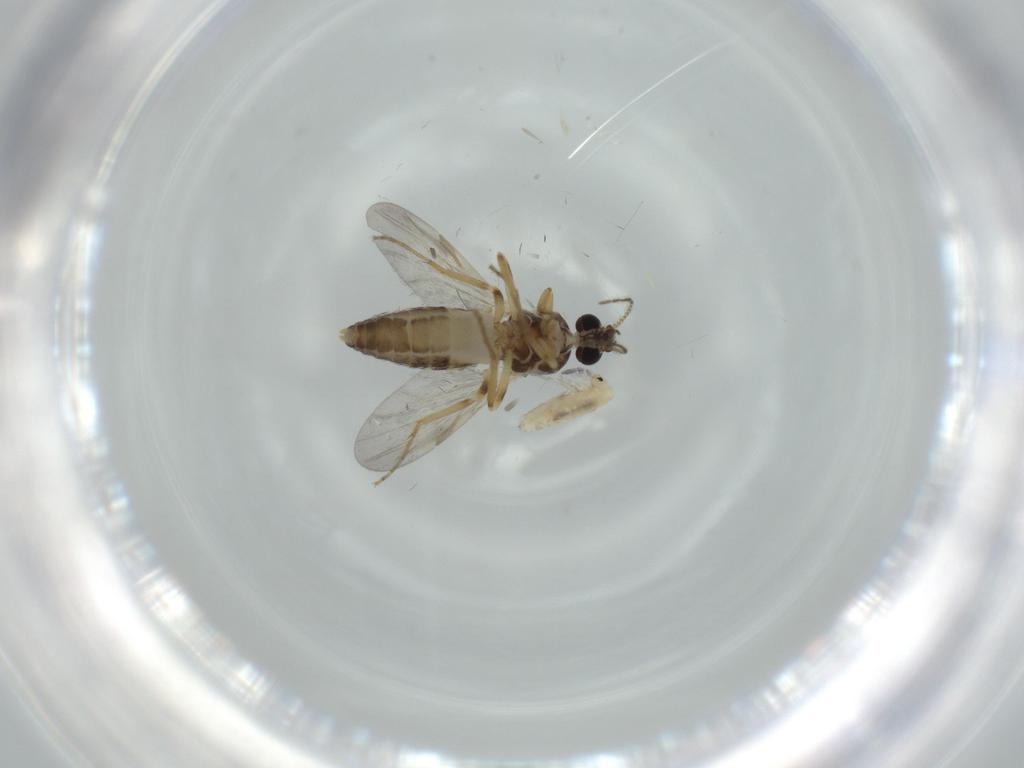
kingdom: Animalia
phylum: Arthropoda
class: Insecta
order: Diptera
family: Ceratopogonidae
